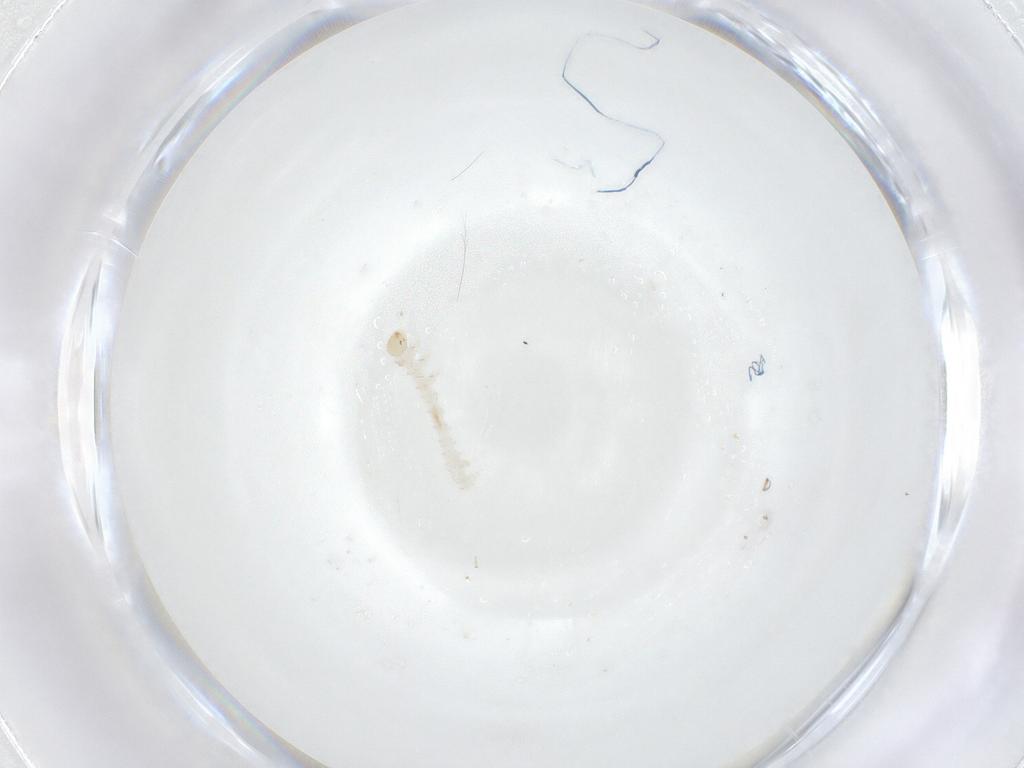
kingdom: Animalia
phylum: Arthropoda
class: Insecta
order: Lepidoptera
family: Erebidae
